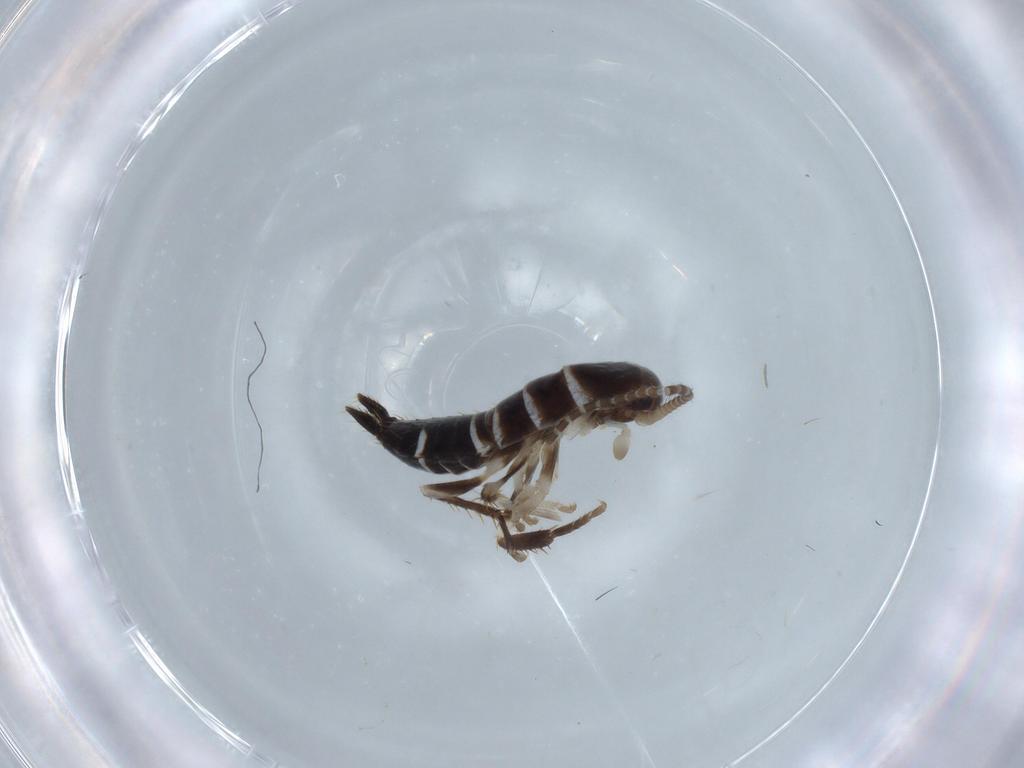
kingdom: Animalia
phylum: Arthropoda
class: Insecta
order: Blattodea
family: Ectobiidae
